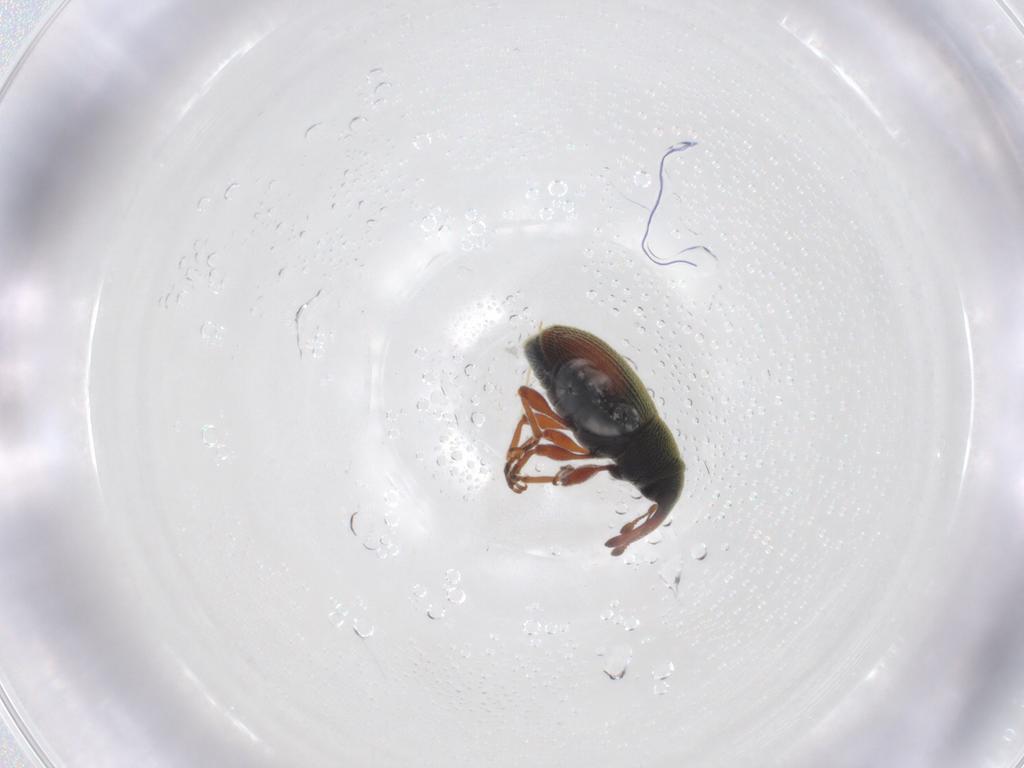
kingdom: Animalia
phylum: Arthropoda
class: Insecta
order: Coleoptera
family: Curculionidae
